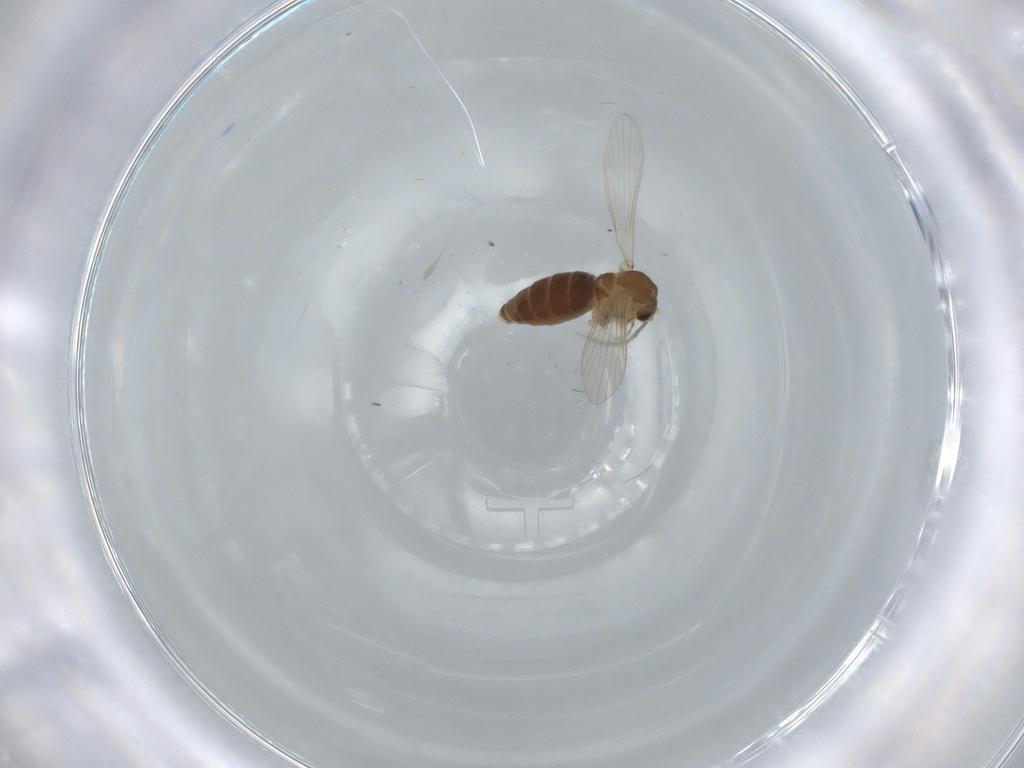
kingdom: Animalia
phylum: Arthropoda
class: Insecta
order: Diptera
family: Psychodidae
